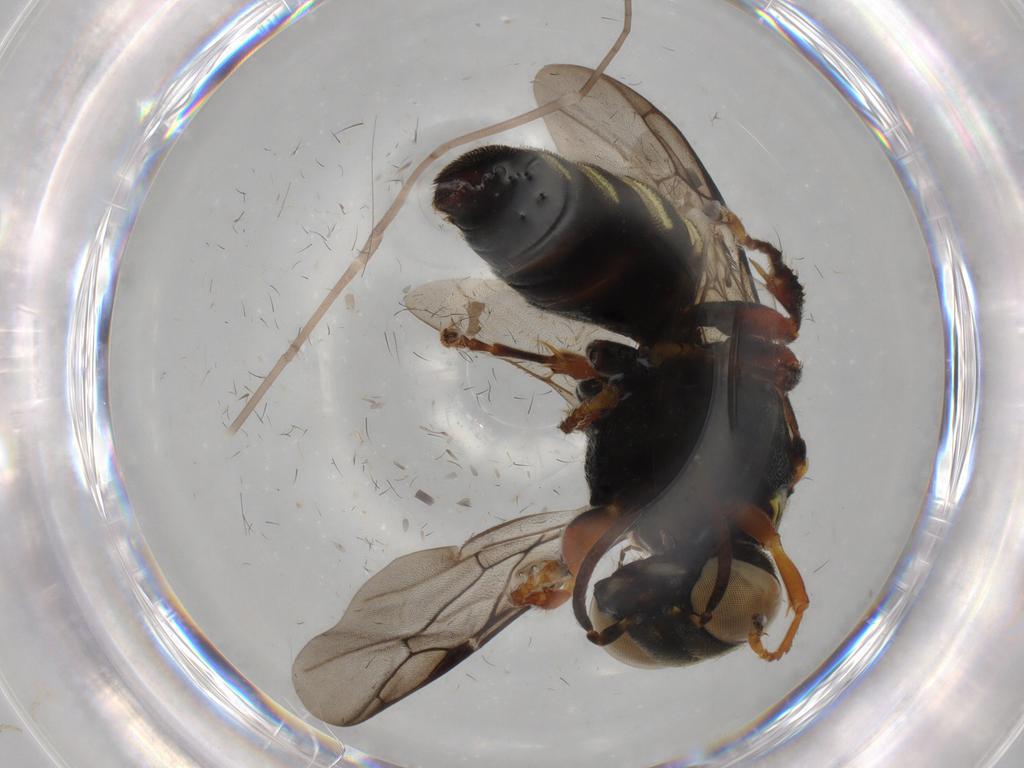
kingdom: Animalia
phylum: Arthropoda
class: Insecta
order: Hymenoptera
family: Crabronidae
